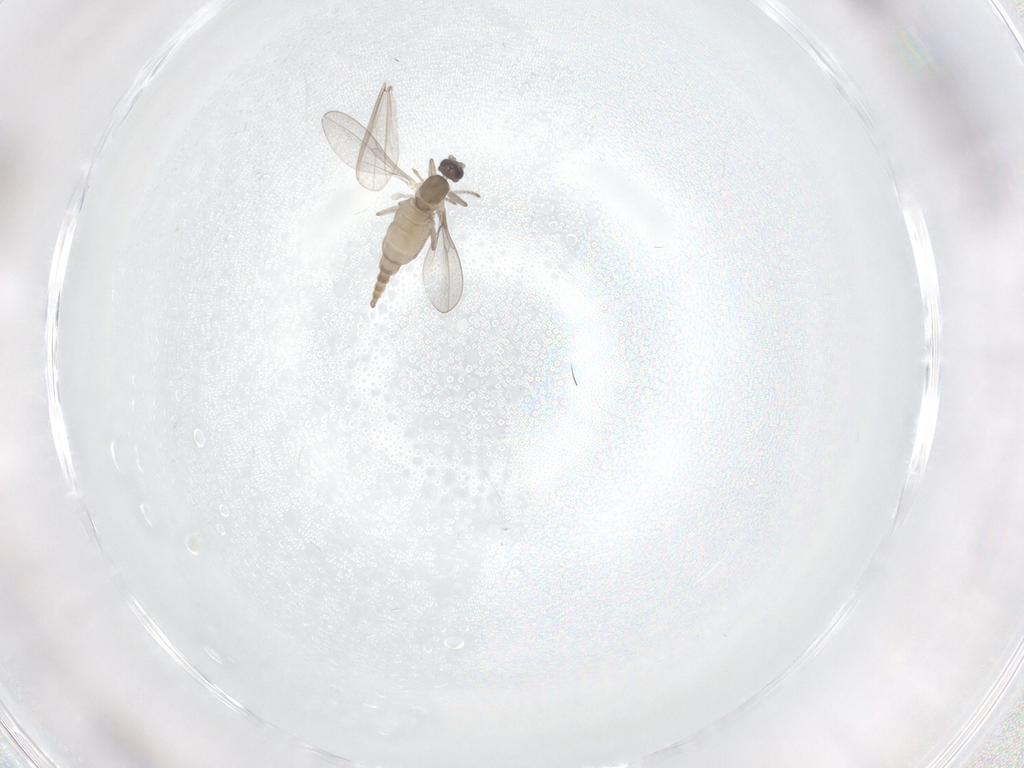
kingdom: Animalia
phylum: Arthropoda
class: Insecta
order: Diptera
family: Cecidomyiidae
